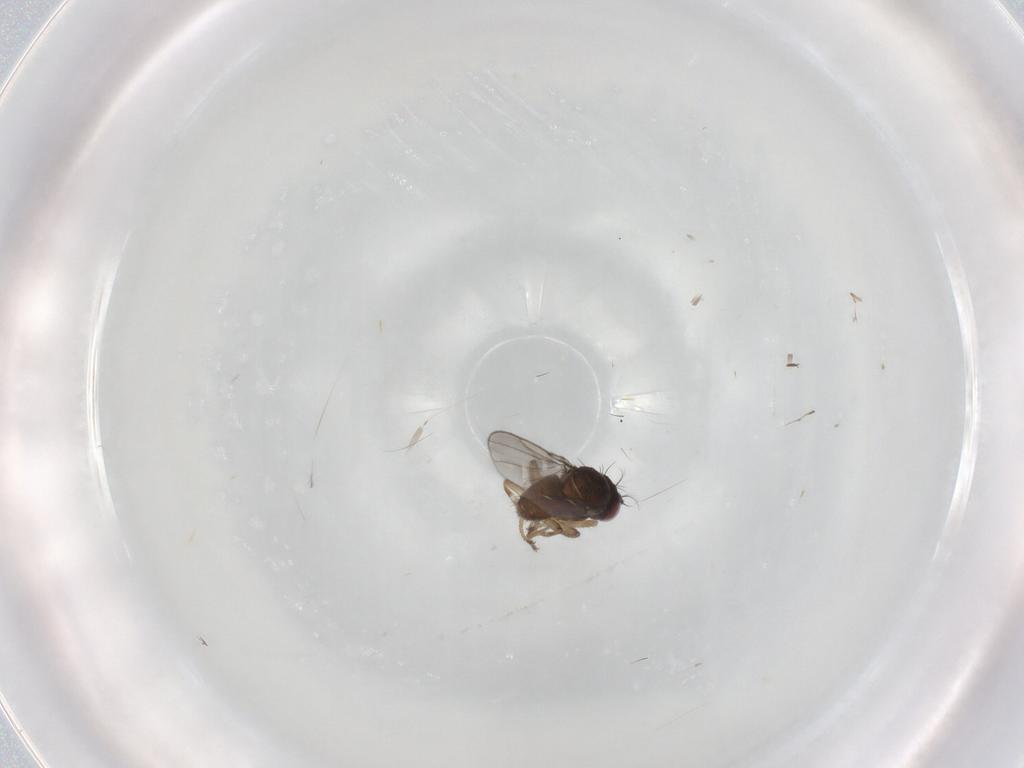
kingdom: Animalia
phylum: Arthropoda
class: Insecta
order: Diptera
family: Ephydridae
